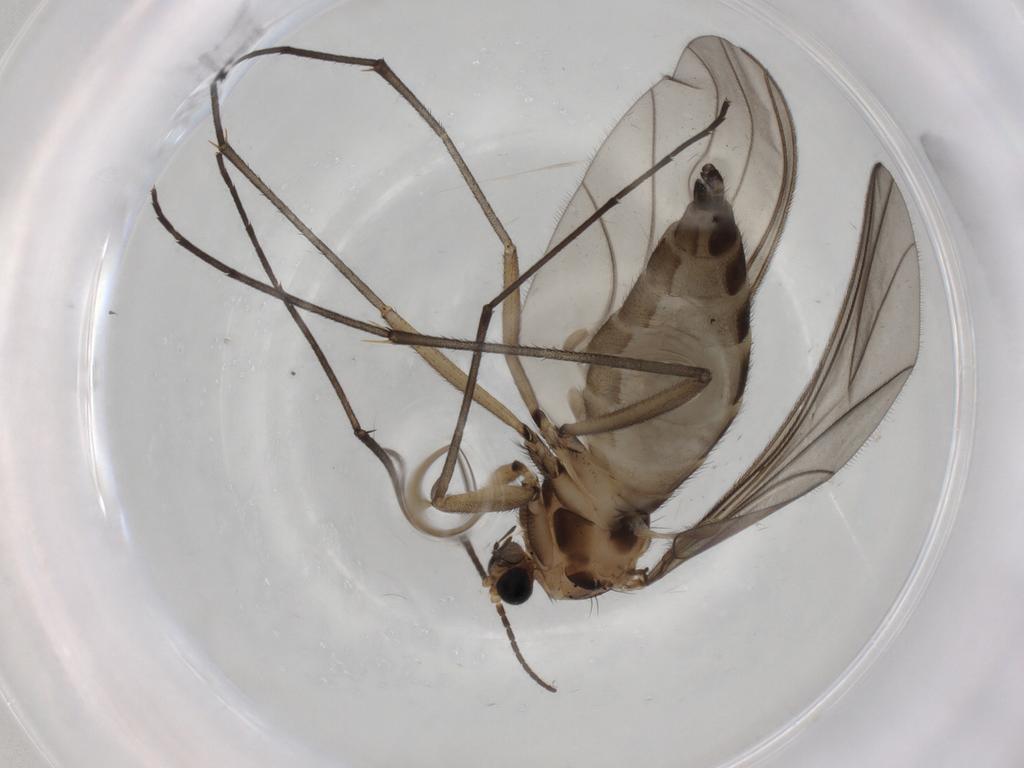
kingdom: Animalia
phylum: Arthropoda
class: Insecta
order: Diptera
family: Sciaridae
